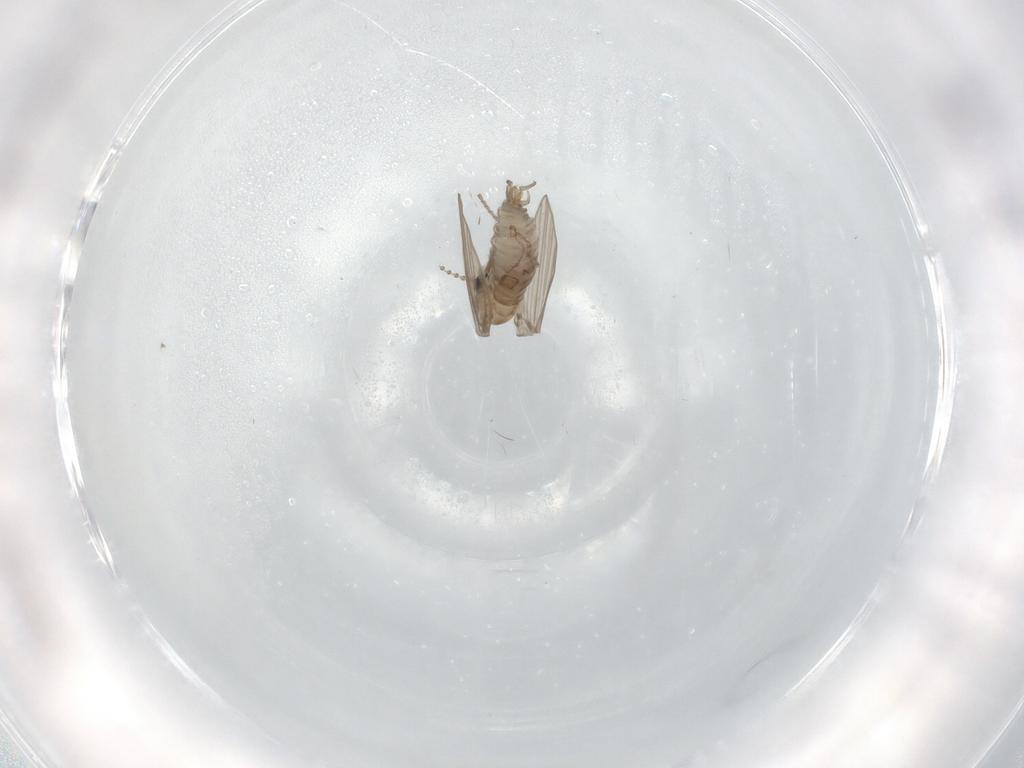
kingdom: Animalia
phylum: Arthropoda
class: Insecta
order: Diptera
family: Psychodidae
